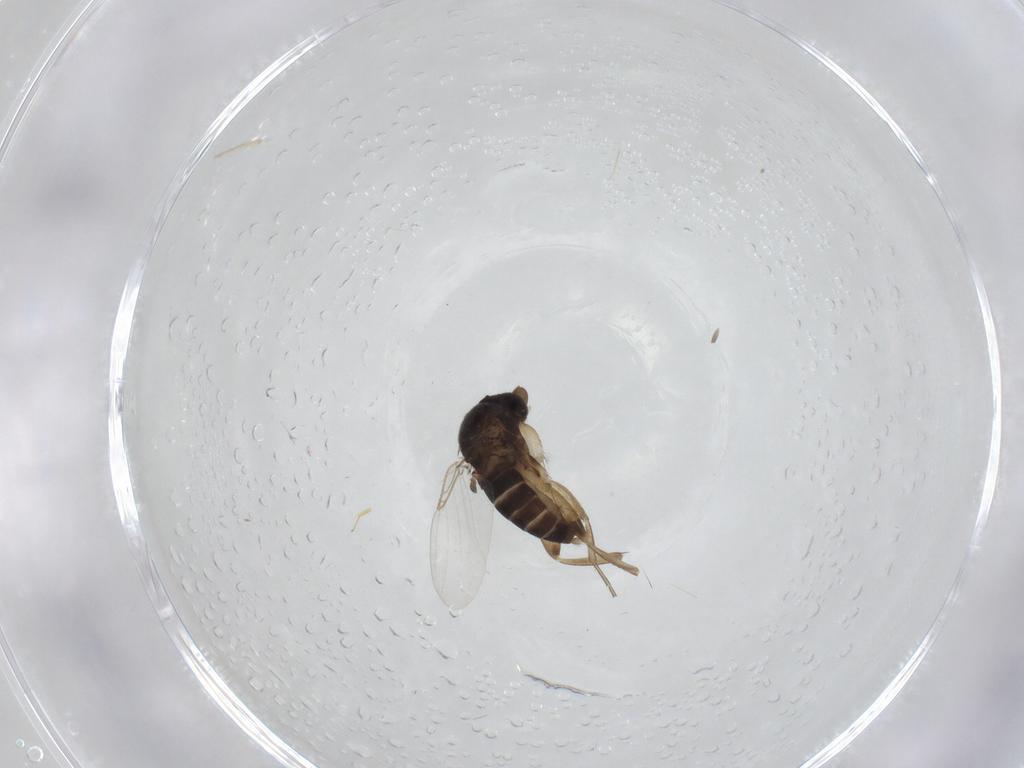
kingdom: Animalia
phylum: Arthropoda
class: Insecta
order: Diptera
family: Phoridae
